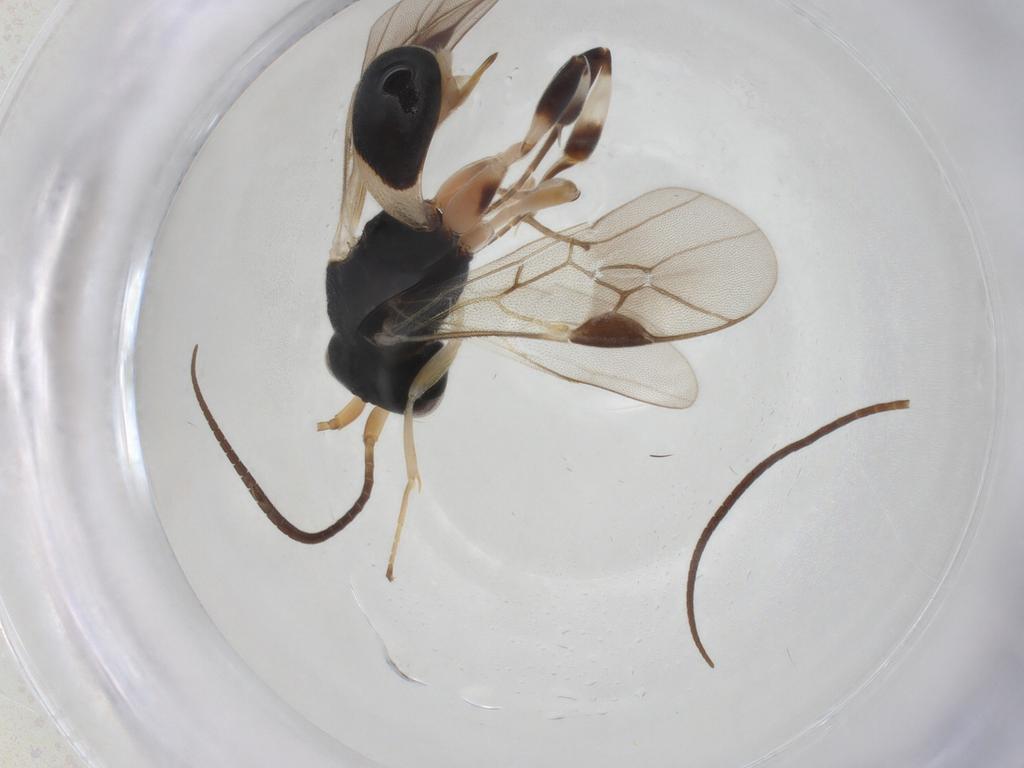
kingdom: Animalia
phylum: Arthropoda
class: Insecta
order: Hymenoptera
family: Braconidae
